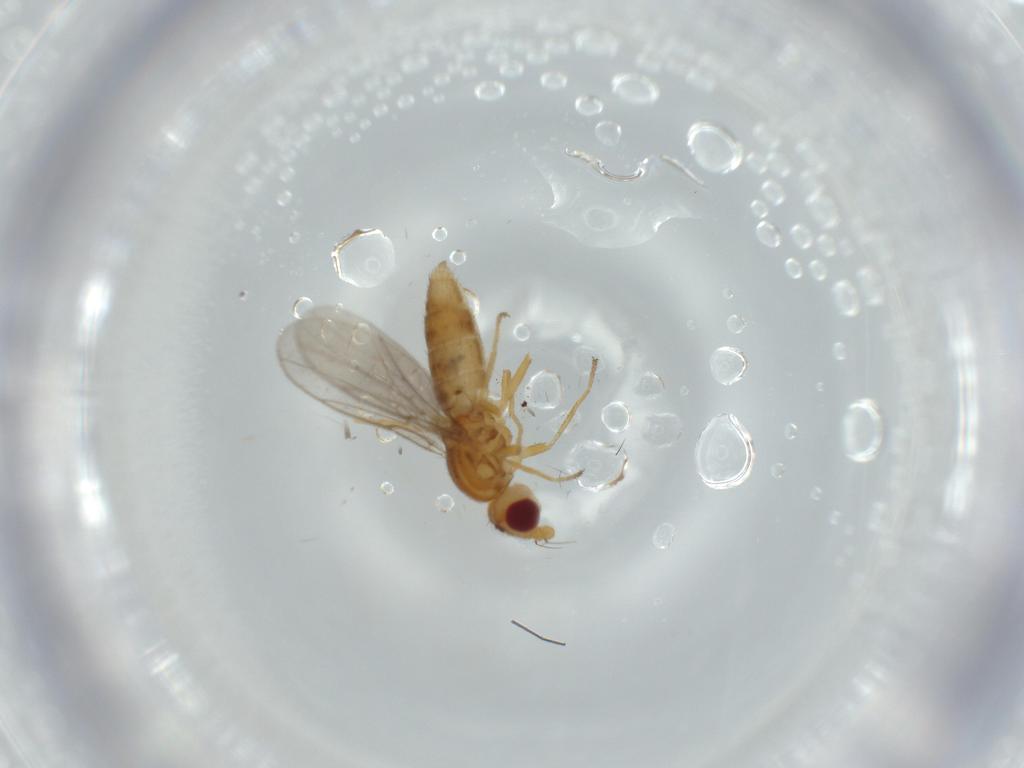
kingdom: Animalia
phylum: Arthropoda
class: Insecta
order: Diptera
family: Chloropidae
